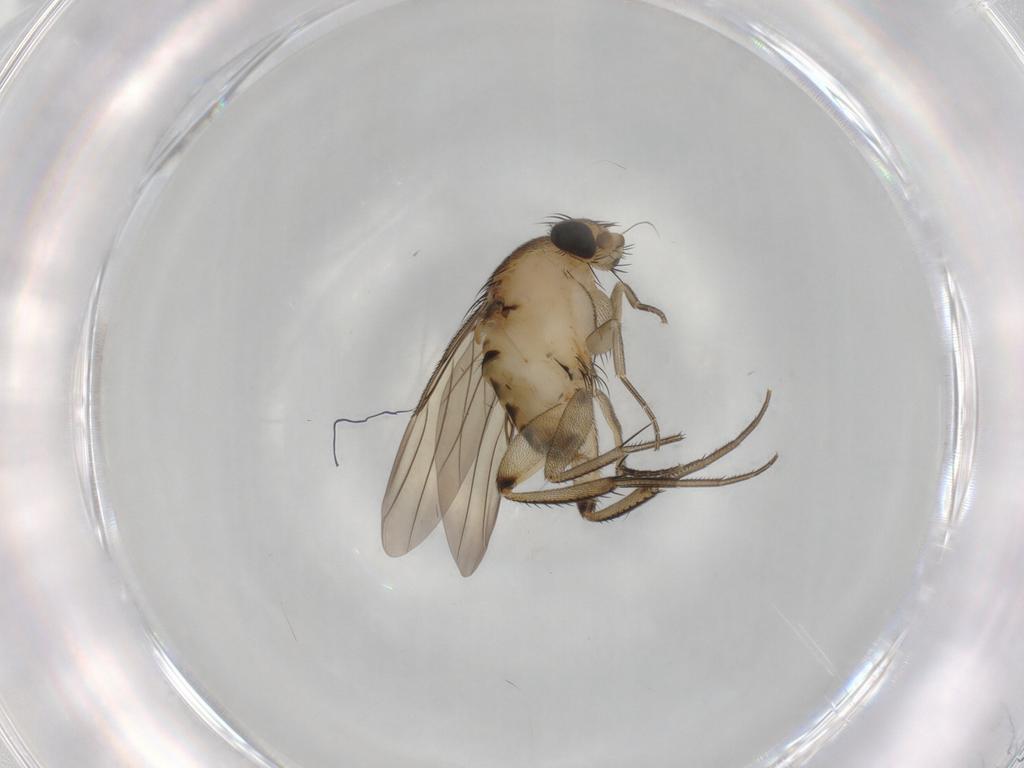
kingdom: Animalia
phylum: Arthropoda
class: Insecta
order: Diptera
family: Phoridae
